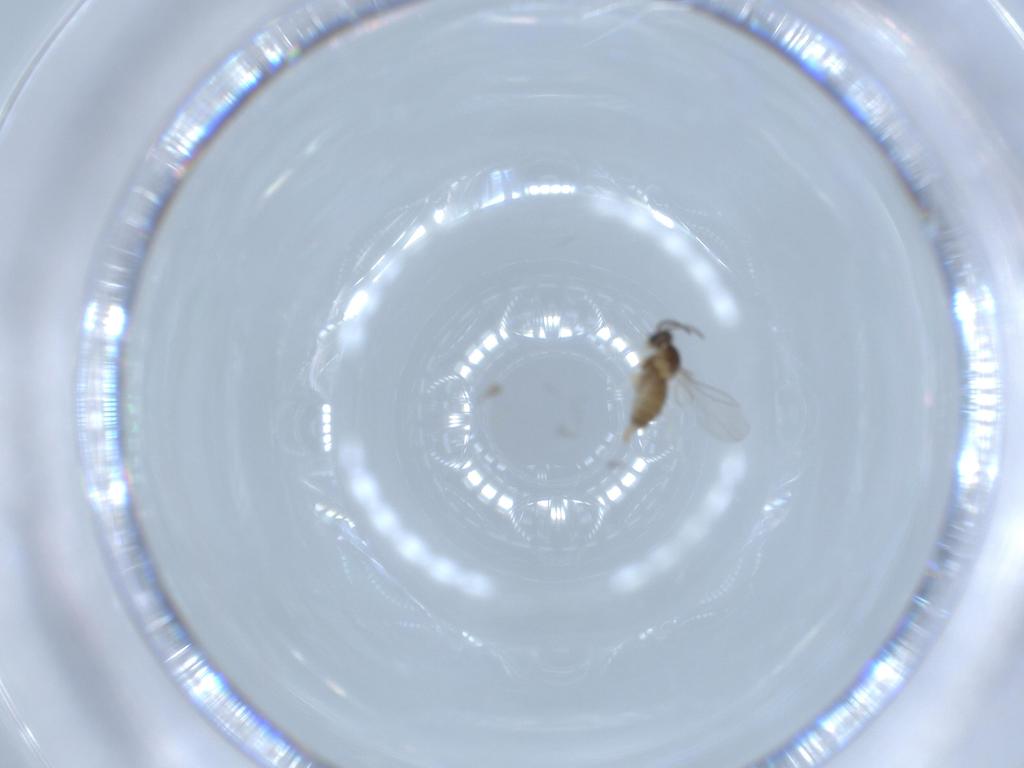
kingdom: Animalia
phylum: Arthropoda
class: Insecta
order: Diptera
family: Cecidomyiidae
